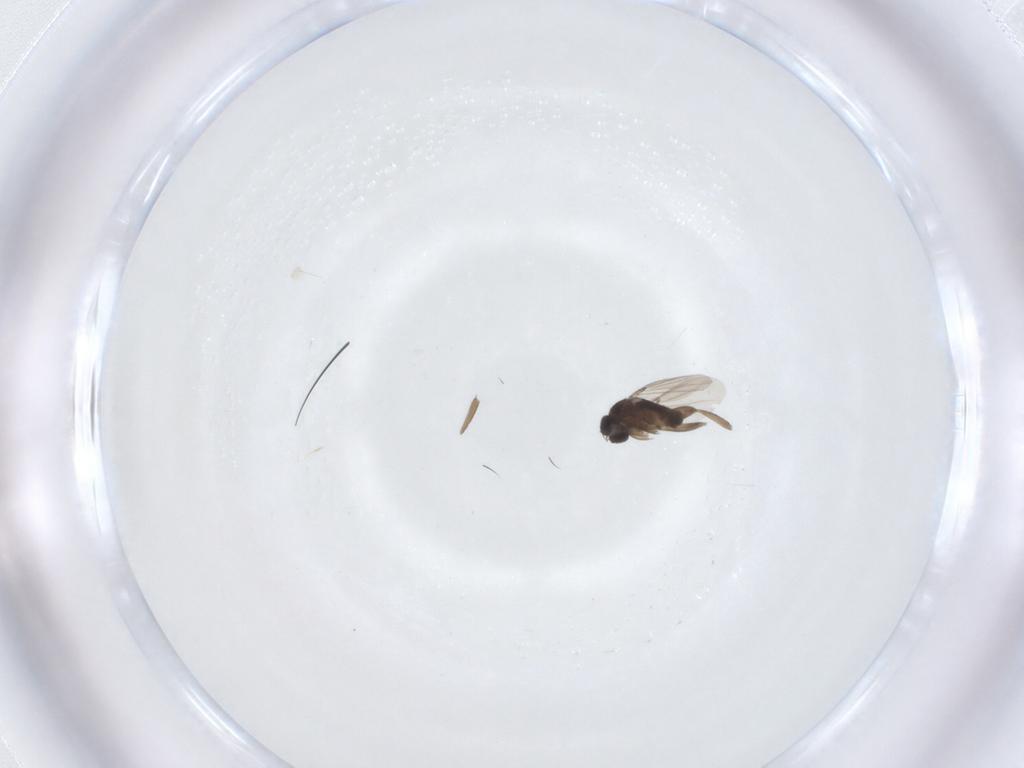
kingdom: Animalia
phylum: Arthropoda
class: Insecta
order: Diptera
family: Phoridae
